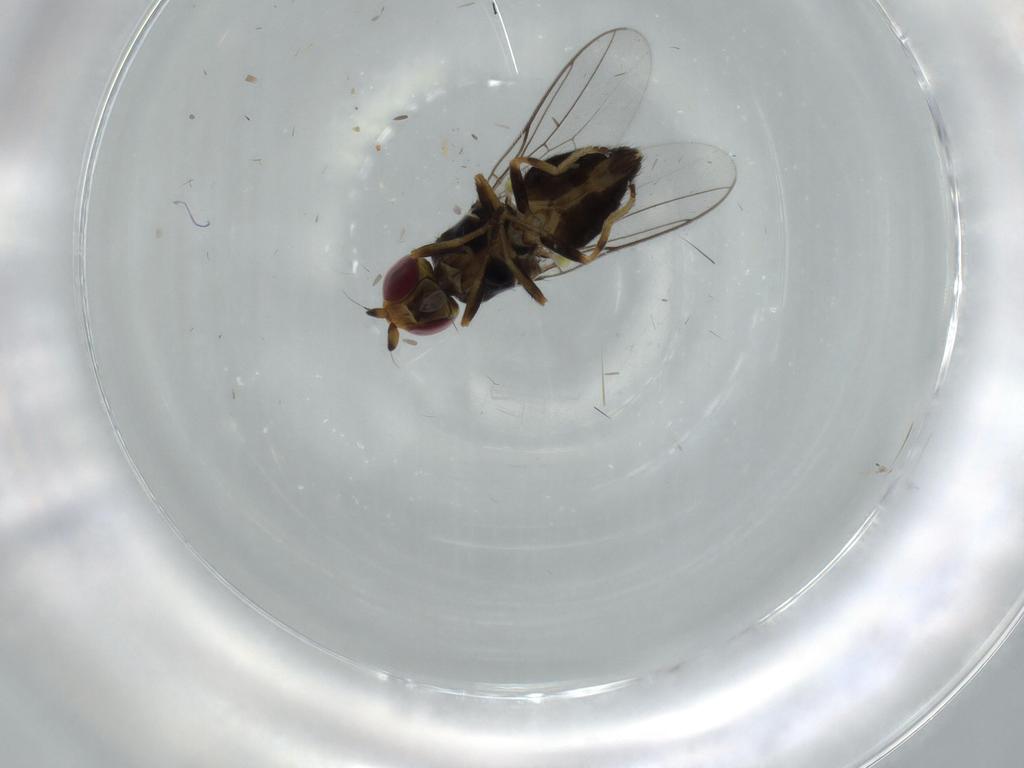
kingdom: Animalia
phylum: Arthropoda
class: Insecta
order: Diptera
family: Chloropidae
